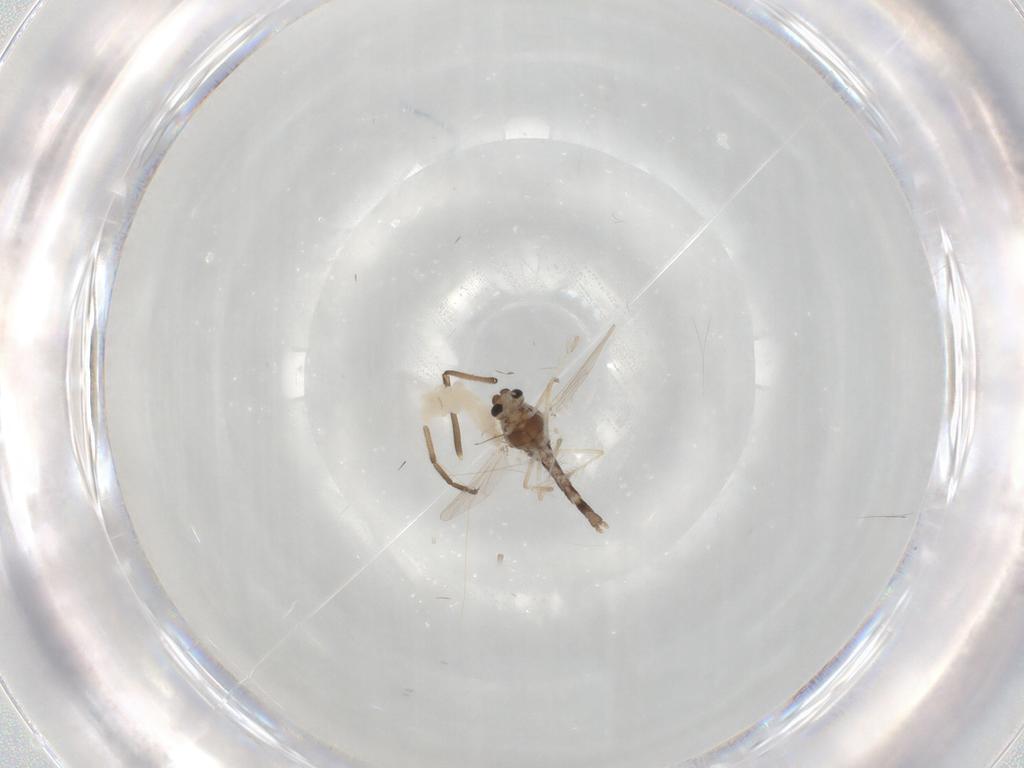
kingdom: Animalia
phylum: Arthropoda
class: Insecta
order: Diptera
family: Chironomidae
